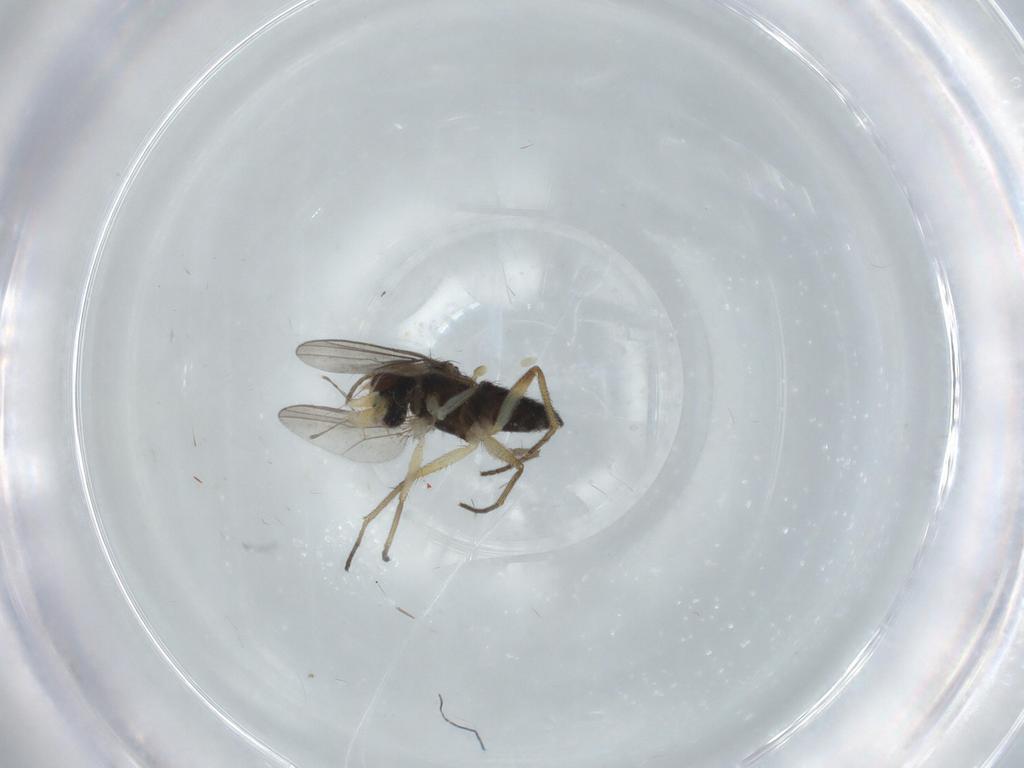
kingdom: Animalia
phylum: Arthropoda
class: Insecta
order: Diptera
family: Dolichopodidae
